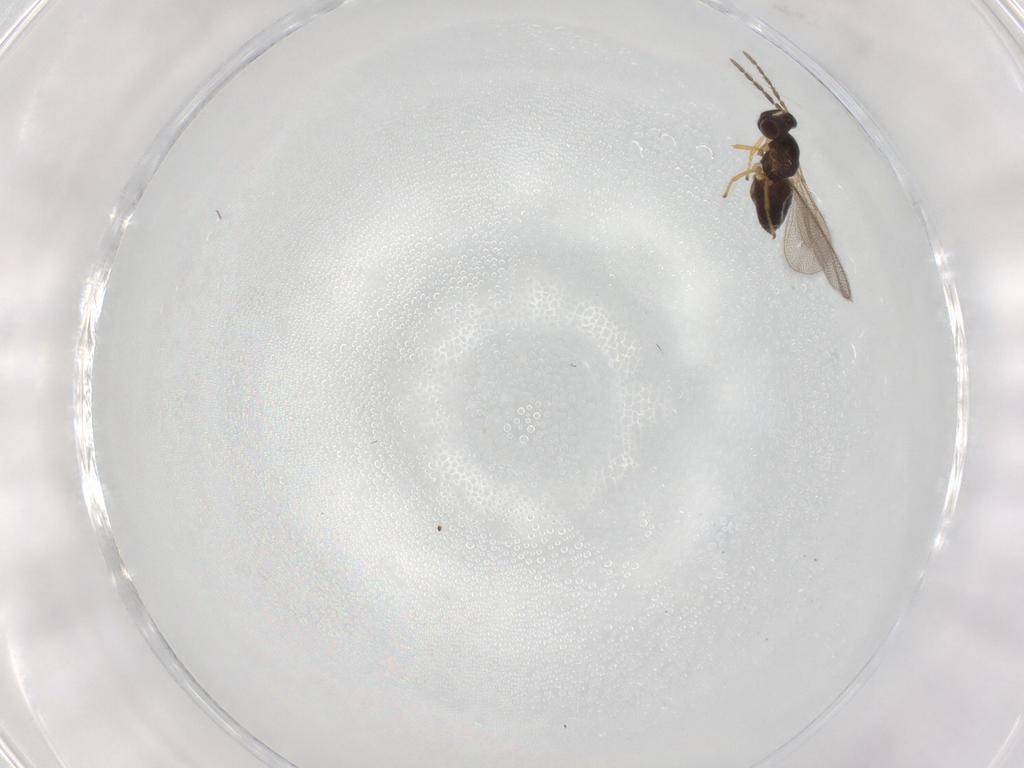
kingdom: Animalia
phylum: Arthropoda
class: Insecta
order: Hymenoptera
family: Eulophidae
